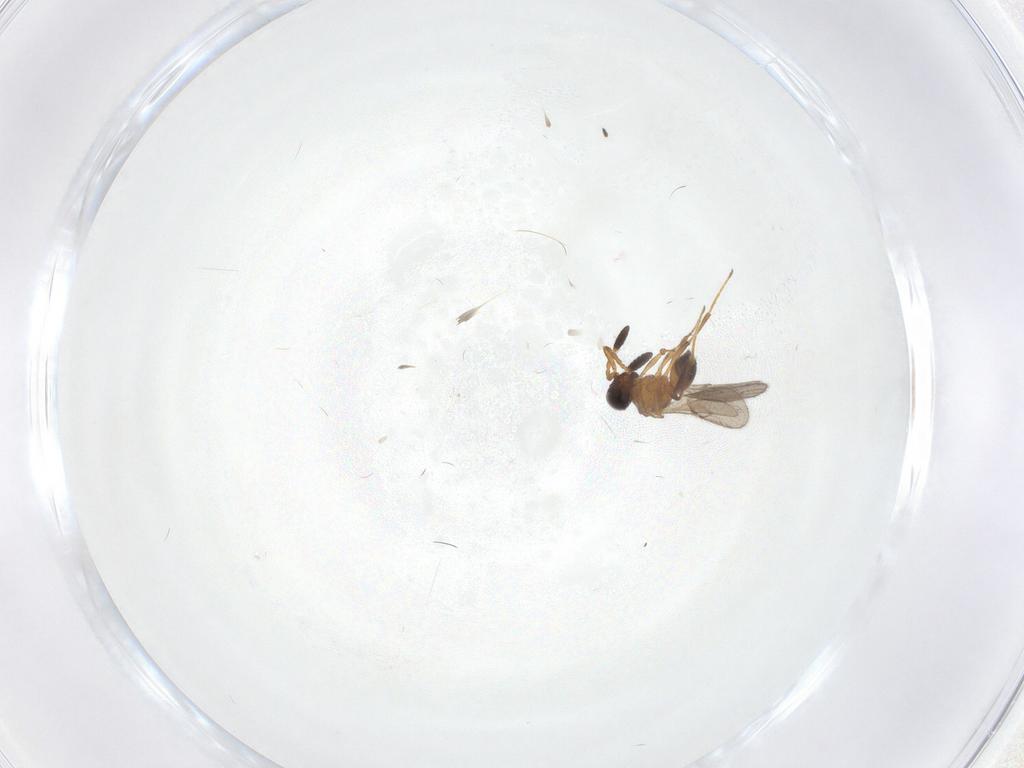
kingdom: Animalia
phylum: Arthropoda
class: Insecta
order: Hymenoptera
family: Scelionidae
